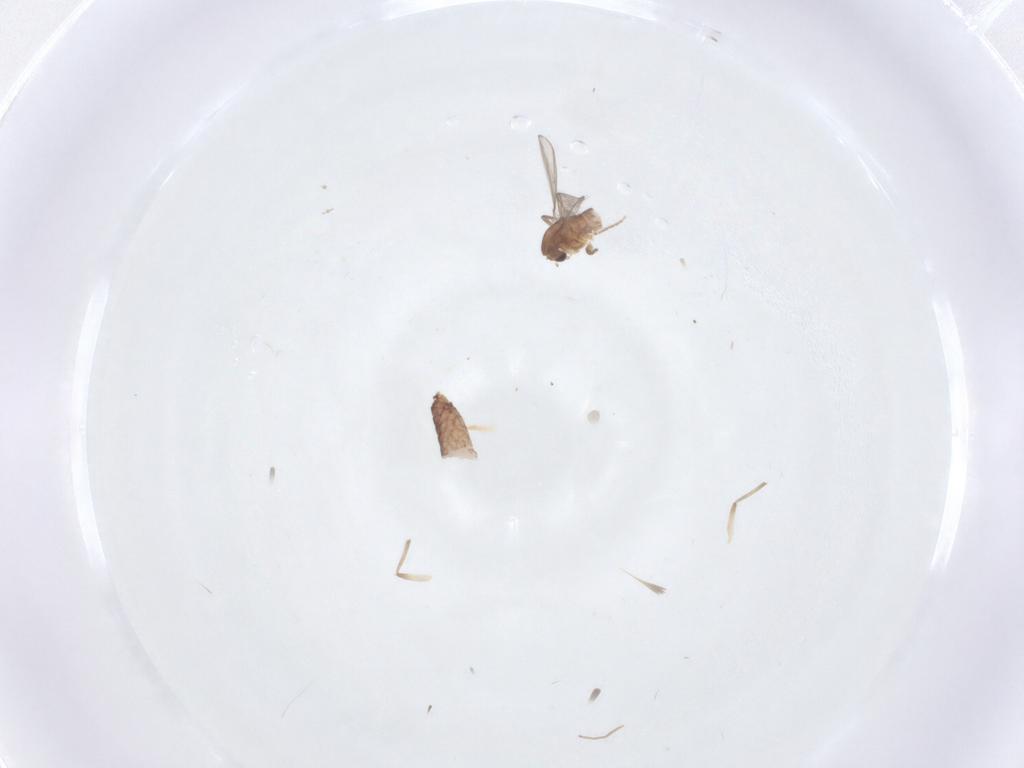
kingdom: Animalia
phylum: Arthropoda
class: Insecta
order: Diptera
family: Chironomidae
